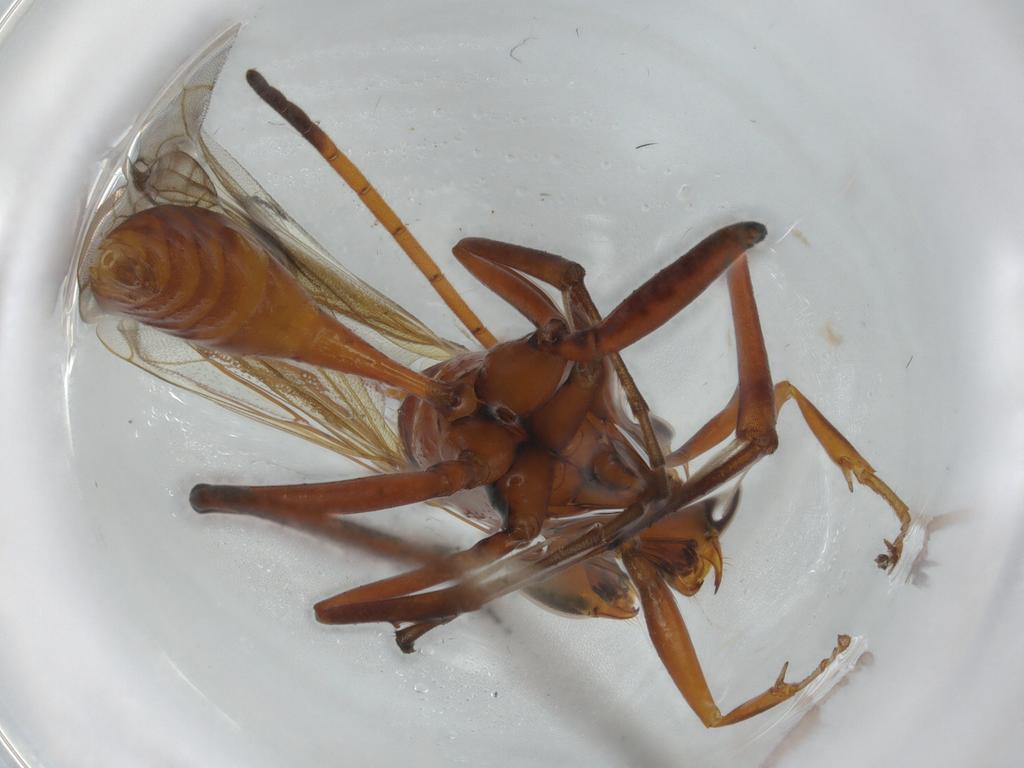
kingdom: Animalia
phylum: Arthropoda
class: Insecta
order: Hymenoptera
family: Pompilidae
